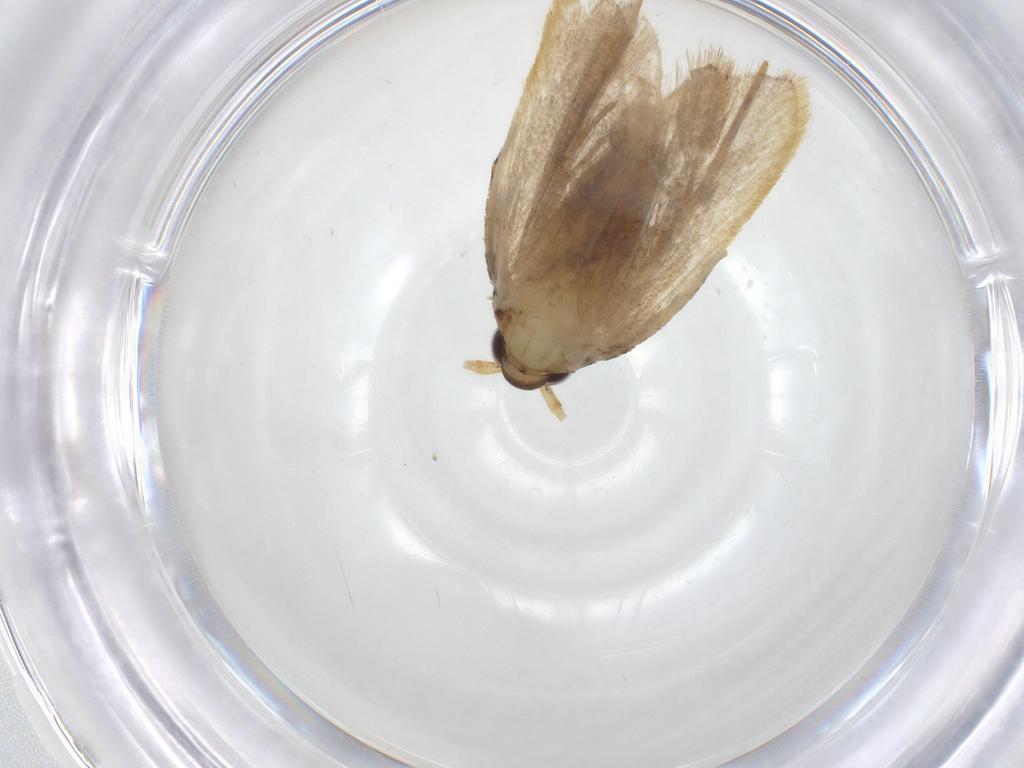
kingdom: Animalia
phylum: Arthropoda
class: Insecta
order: Lepidoptera
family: Lecithoceridae
